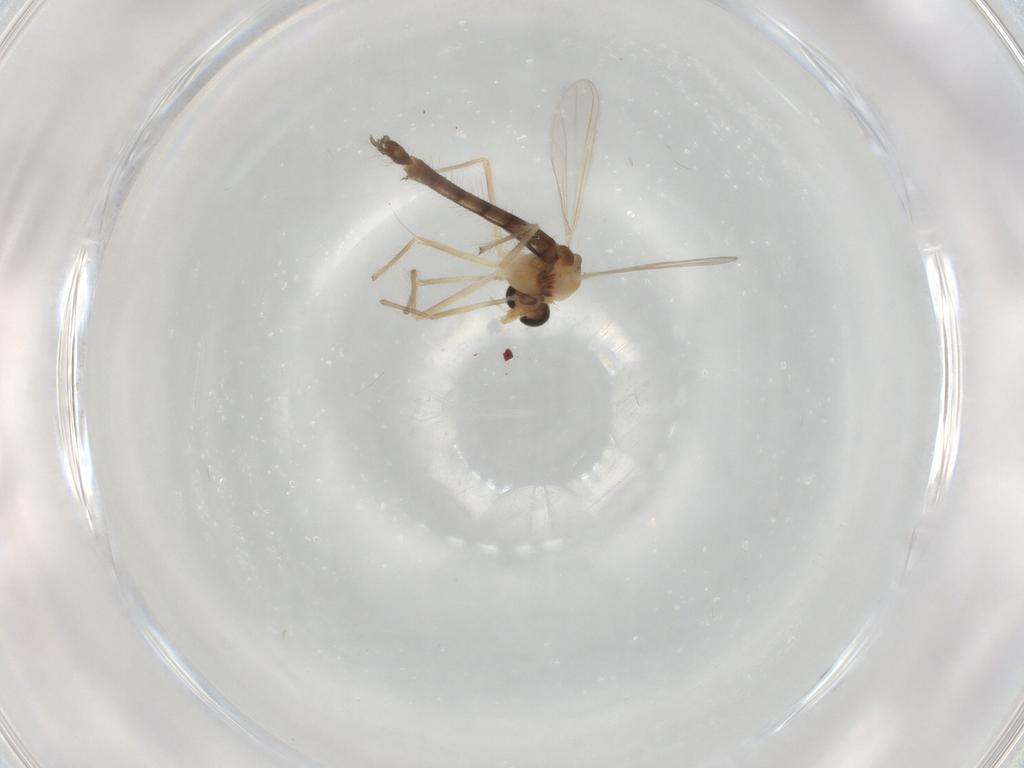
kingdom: Animalia
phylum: Arthropoda
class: Insecta
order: Diptera
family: Chironomidae
